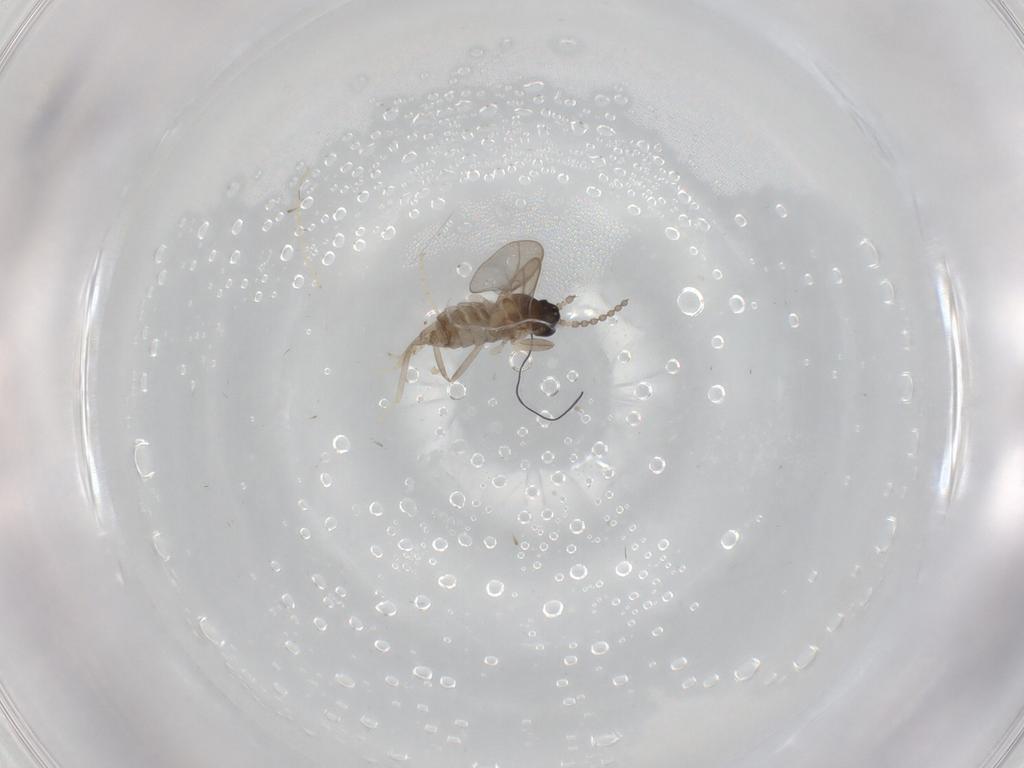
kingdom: Animalia
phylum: Arthropoda
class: Insecta
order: Diptera
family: Cecidomyiidae
